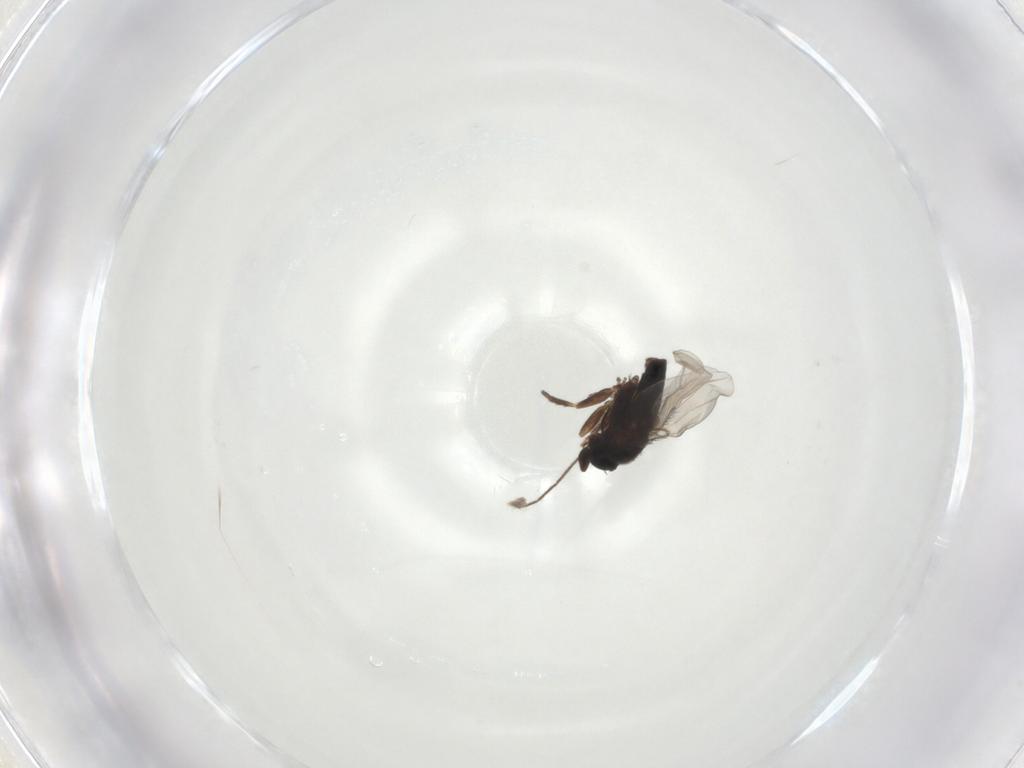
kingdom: Animalia
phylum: Arthropoda
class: Insecta
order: Diptera
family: Chironomidae
